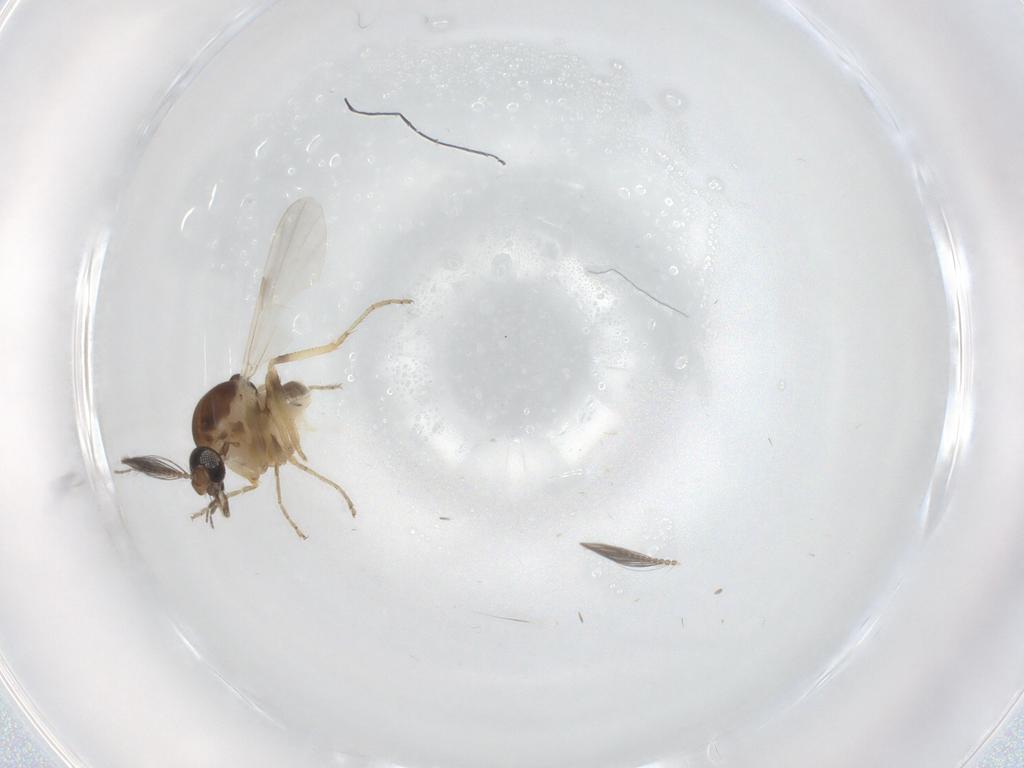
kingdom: Animalia
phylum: Arthropoda
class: Insecta
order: Diptera
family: Ceratopogonidae
